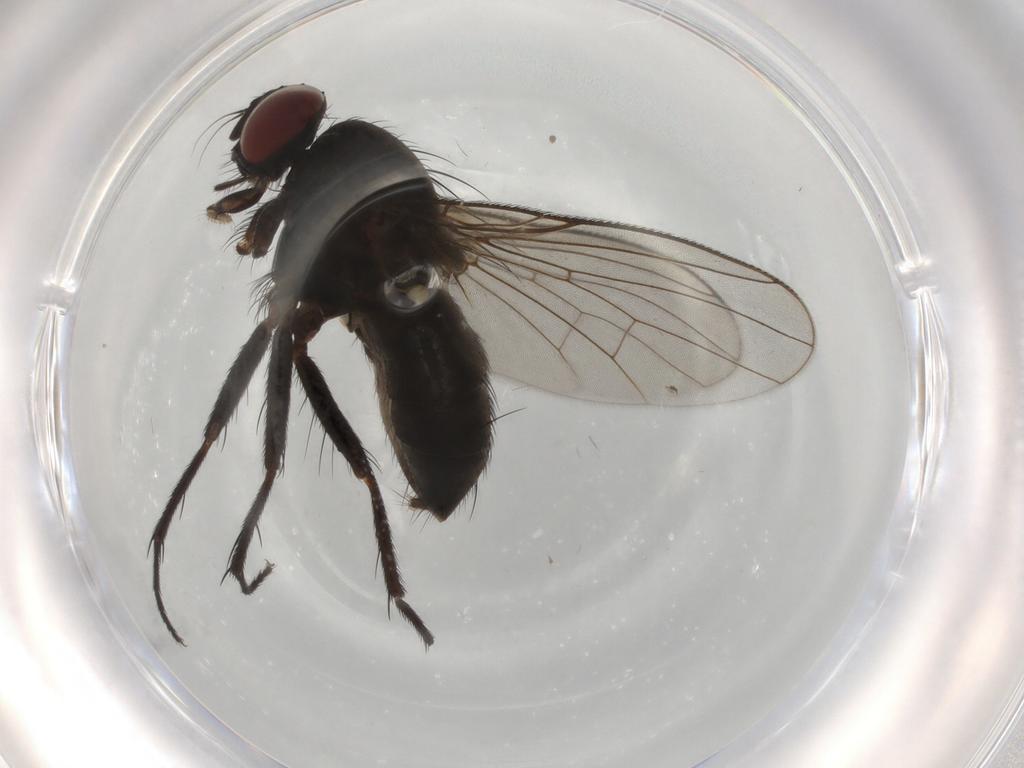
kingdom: Animalia
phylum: Arthropoda
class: Insecta
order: Diptera
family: Muscidae
